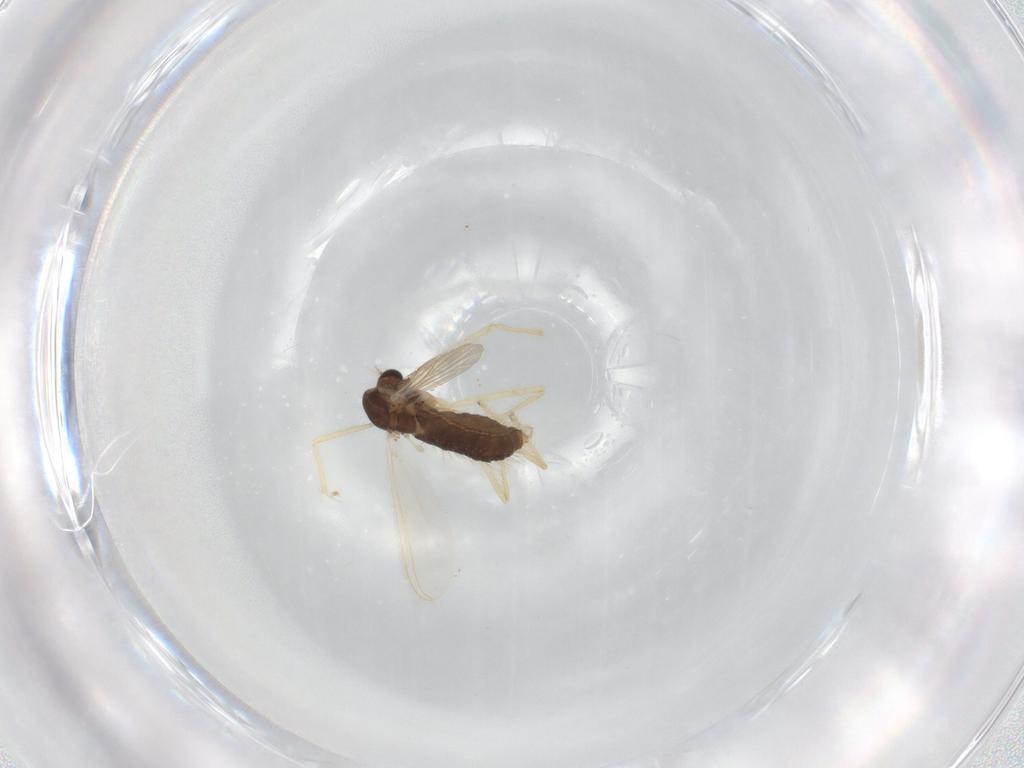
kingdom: Animalia
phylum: Arthropoda
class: Insecta
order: Diptera
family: Chironomidae
